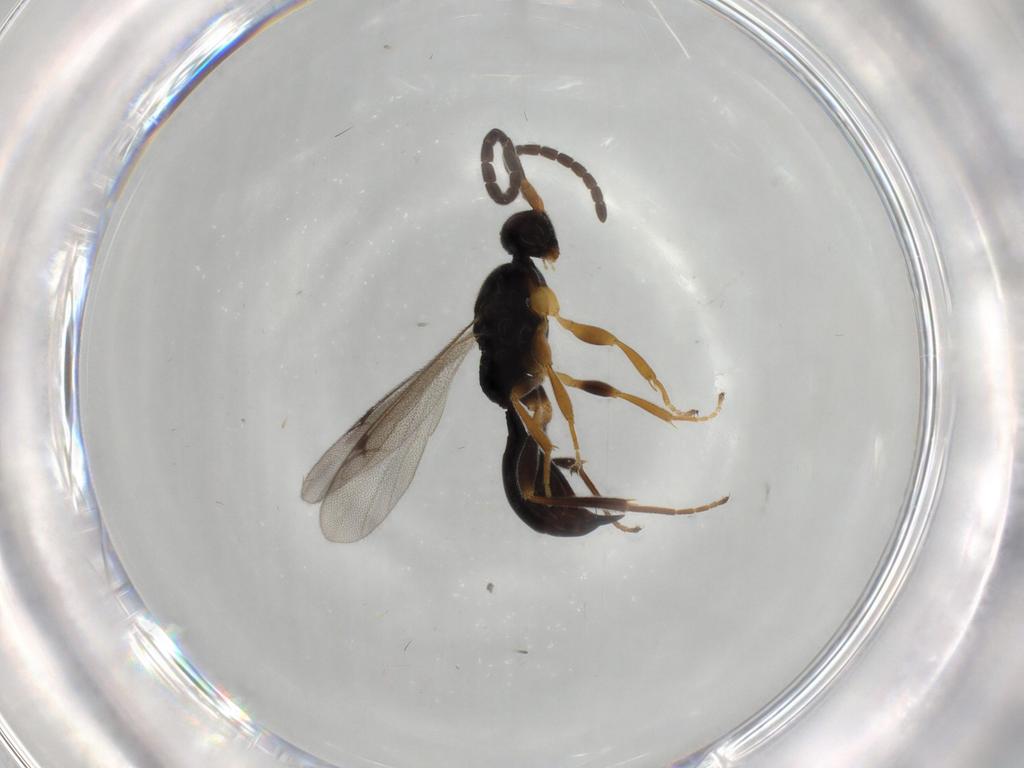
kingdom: Animalia
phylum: Arthropoda
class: Insecta
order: Hymenoptera
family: Proctotrupidae
